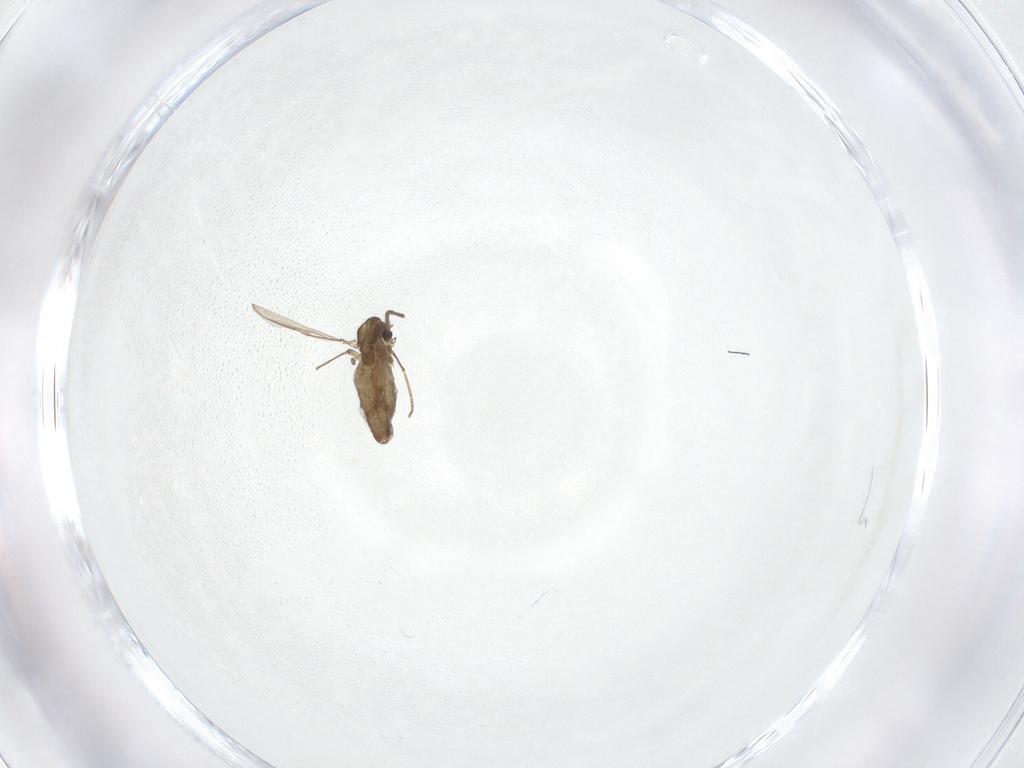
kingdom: Animalia
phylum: Arthropoda
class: Insecta
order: Diptera
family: Chironomidae
